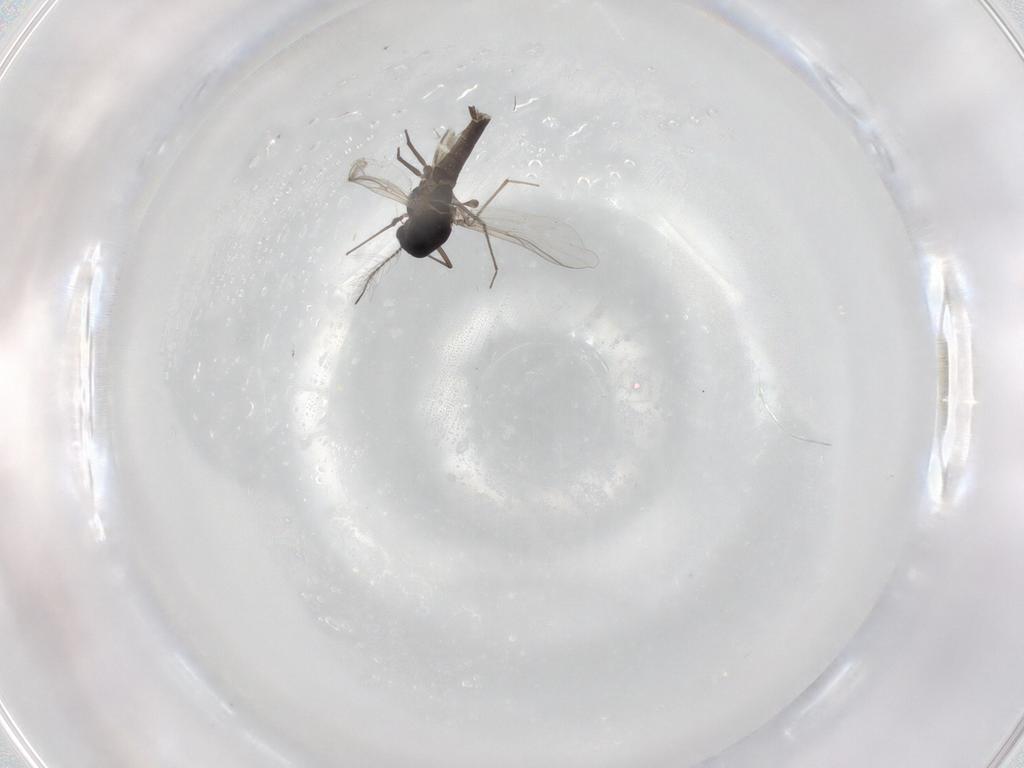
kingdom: Animalia
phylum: Arthropoda
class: Insecta
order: Diptera
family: Chironomidae
